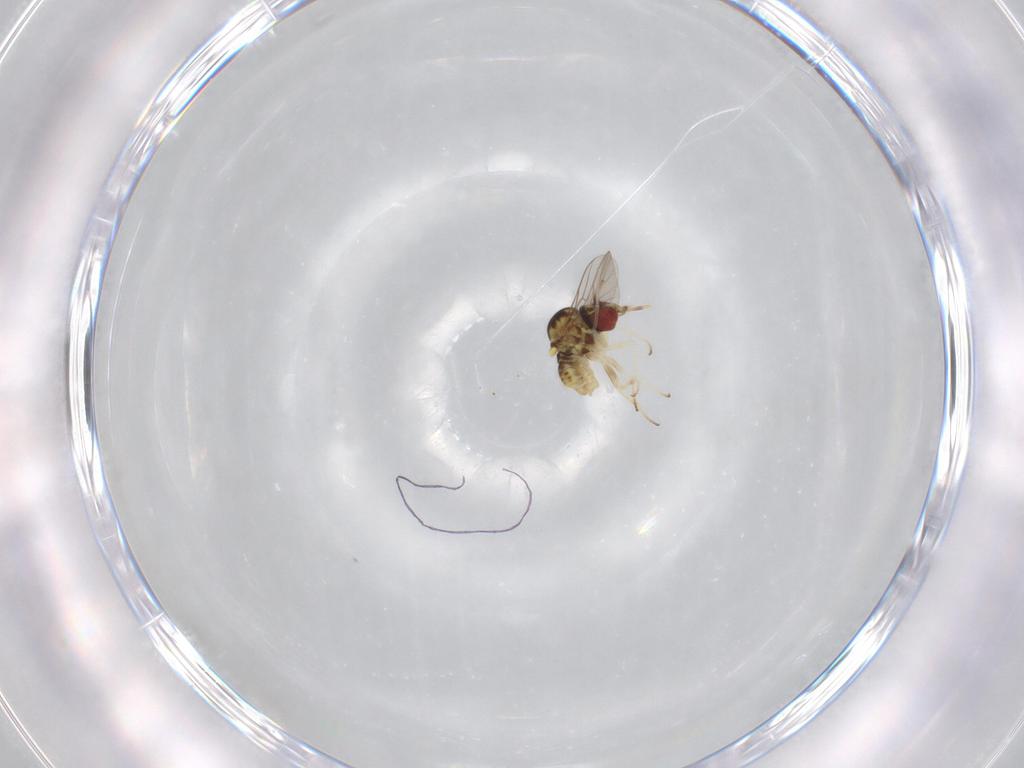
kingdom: Animalia
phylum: Arthropoda
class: Insecta
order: Diptera
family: Bombyliidae
